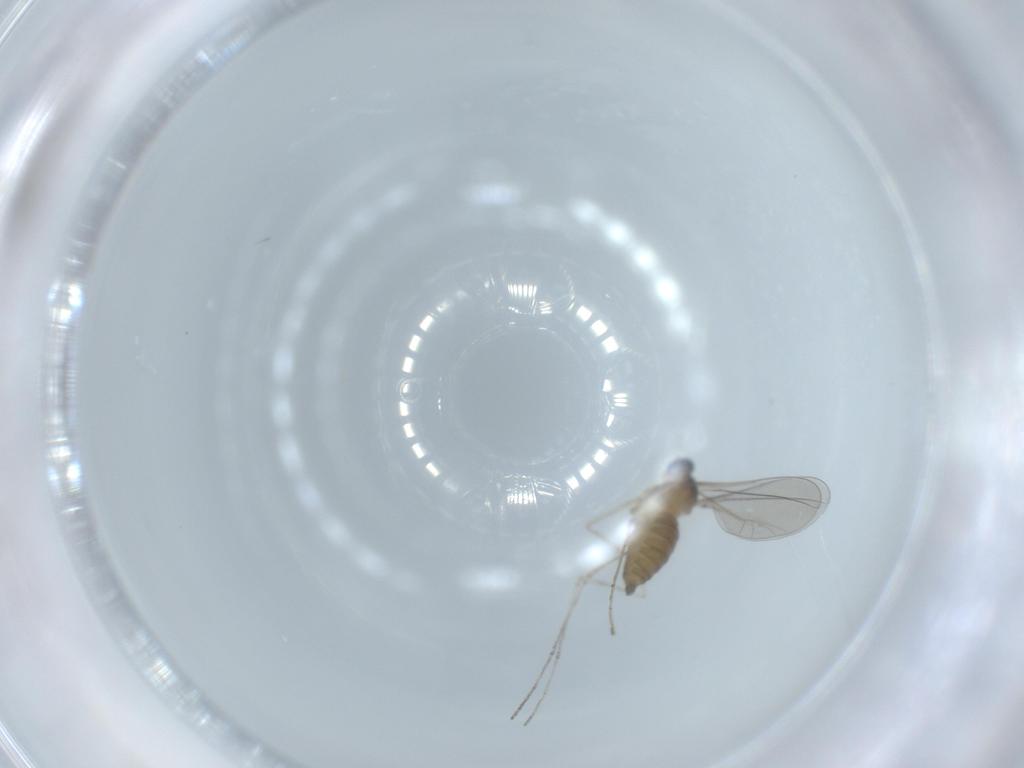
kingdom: Animalia
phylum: Arthropoda
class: Insecta
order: Diptera
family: Cecidomyiidae
